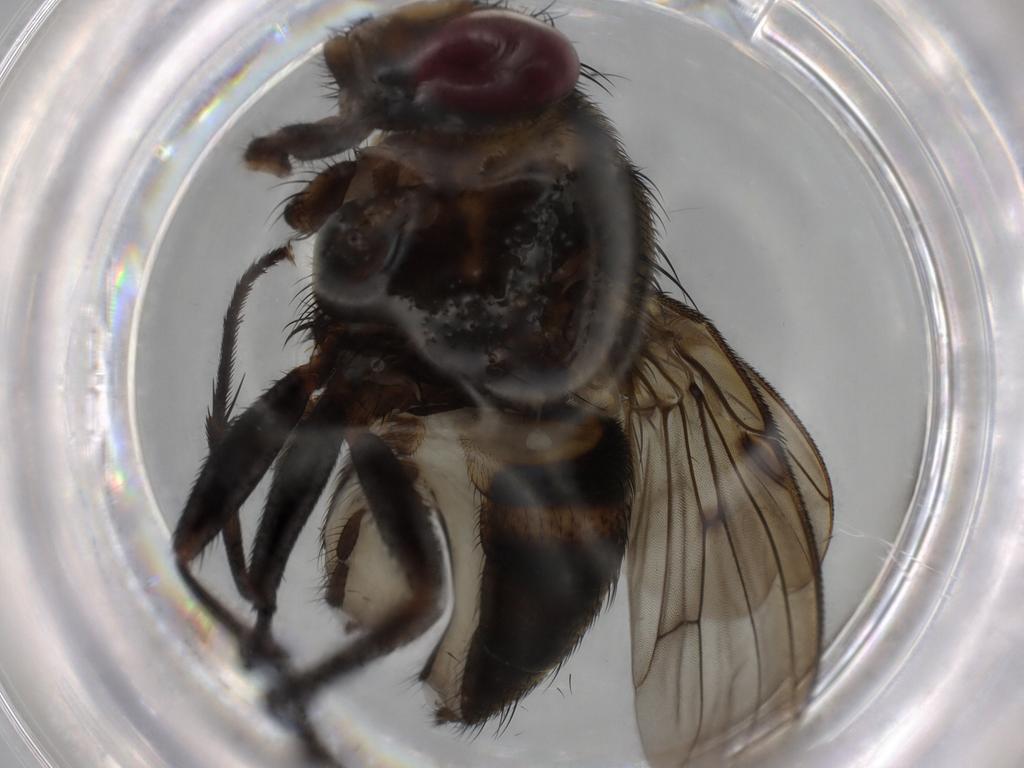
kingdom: Animalia
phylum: Arthropoda
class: Insecta
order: Diptera
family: Muscidae
